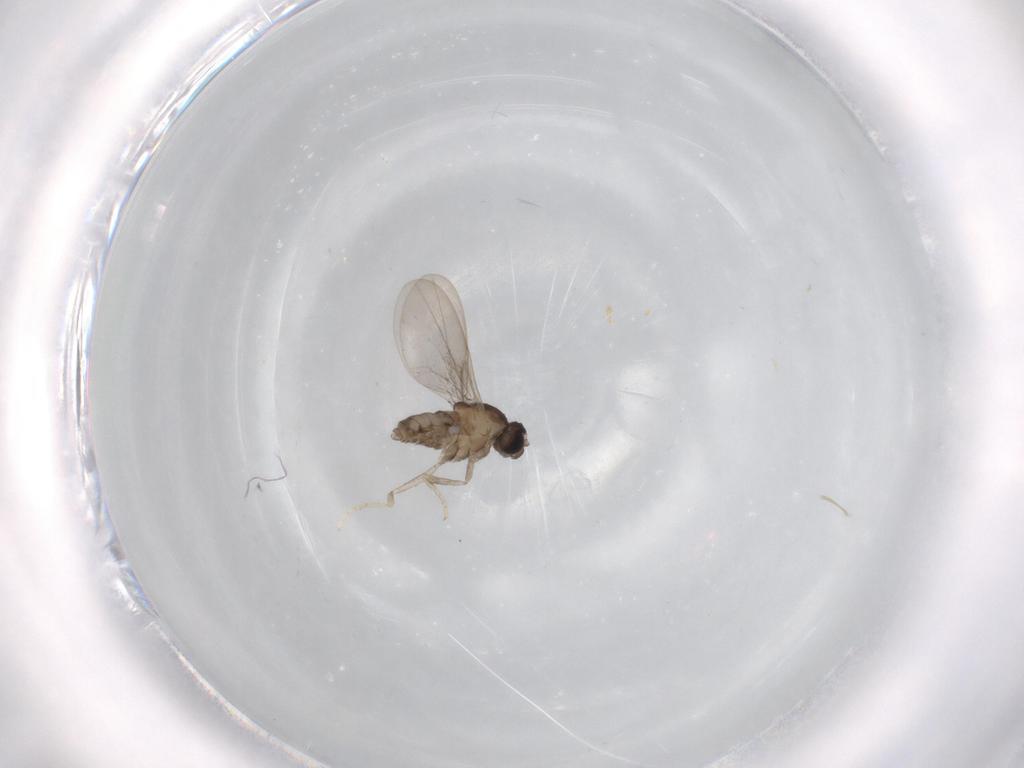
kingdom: Animalia
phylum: Arthropoda
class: Insecta
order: Diptera
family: Cecidomyiidae
